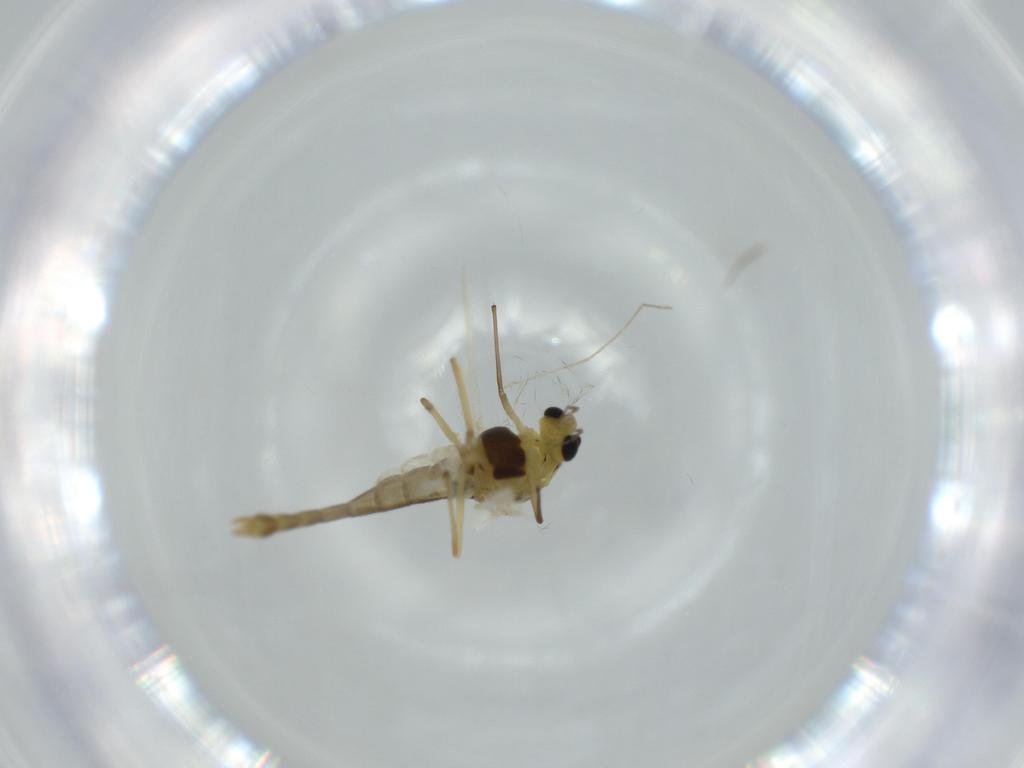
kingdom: Animalia
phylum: Arthropoda
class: Insecta
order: Diptera
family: Chironomidae
